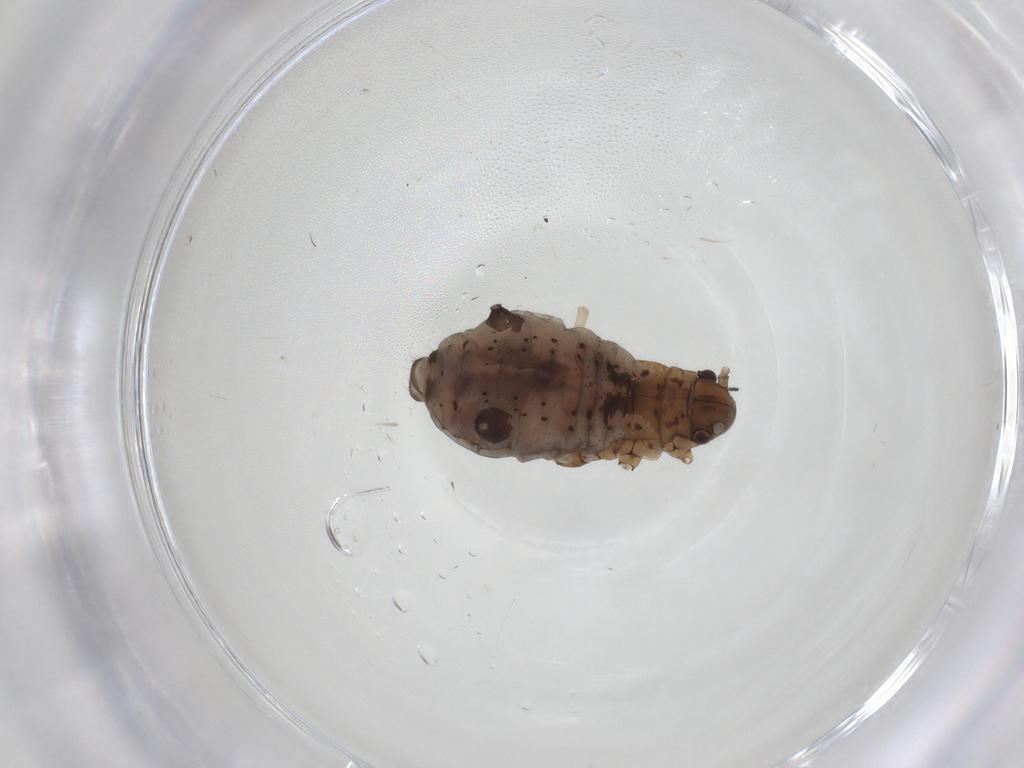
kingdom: Animalia
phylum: Arthropoda
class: Insecta
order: Hemiptera
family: Aphididae
